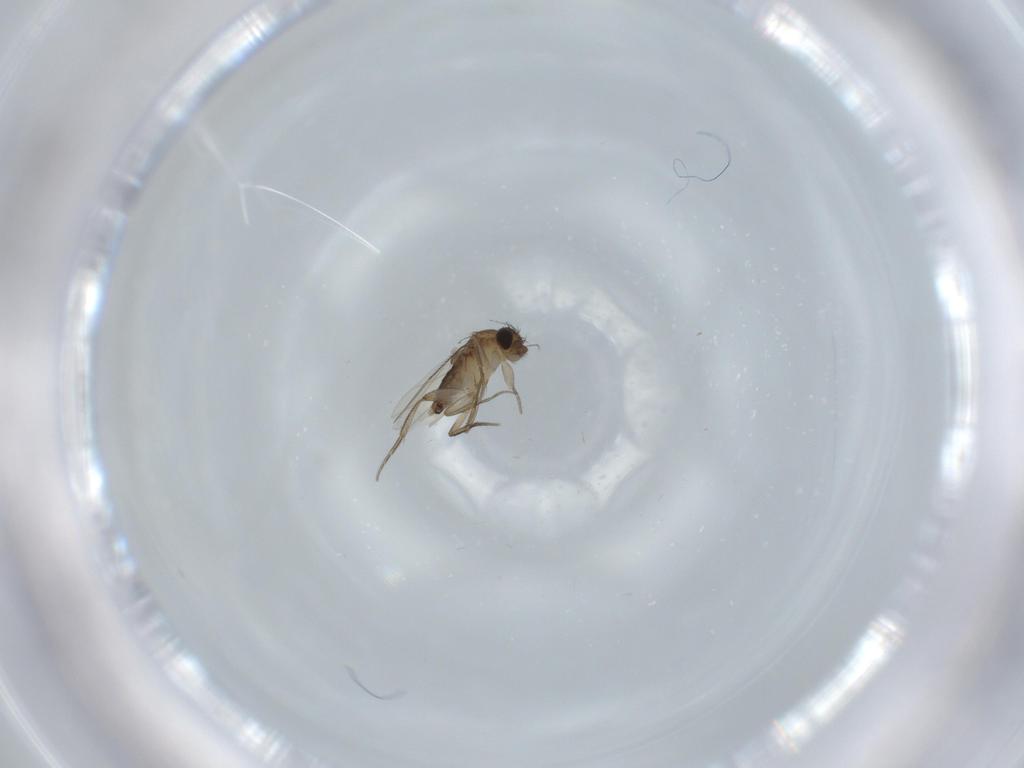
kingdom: Animalia
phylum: Arthropoda
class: Insecta
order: Diptera
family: Phoridae
